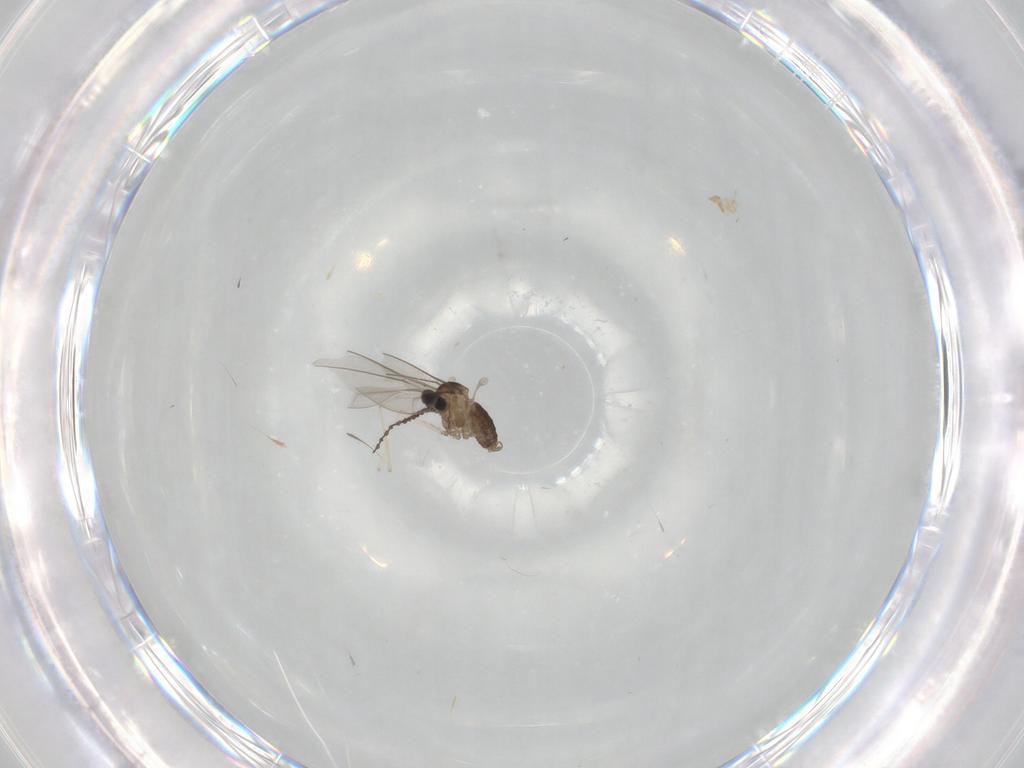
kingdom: Animalia
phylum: Arthropoda
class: Insecta
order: Diptera
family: Cecidomyiidae
